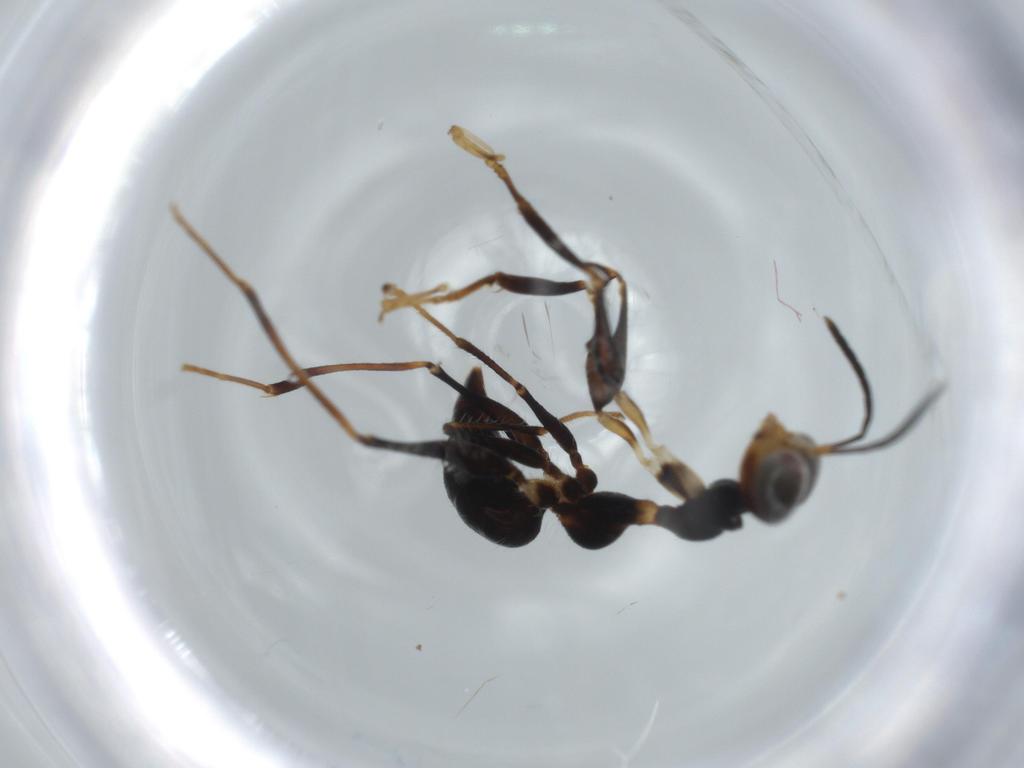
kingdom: Animalia
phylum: Arthropoda
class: Insecta
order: Hymenoptera
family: Dryinidae
